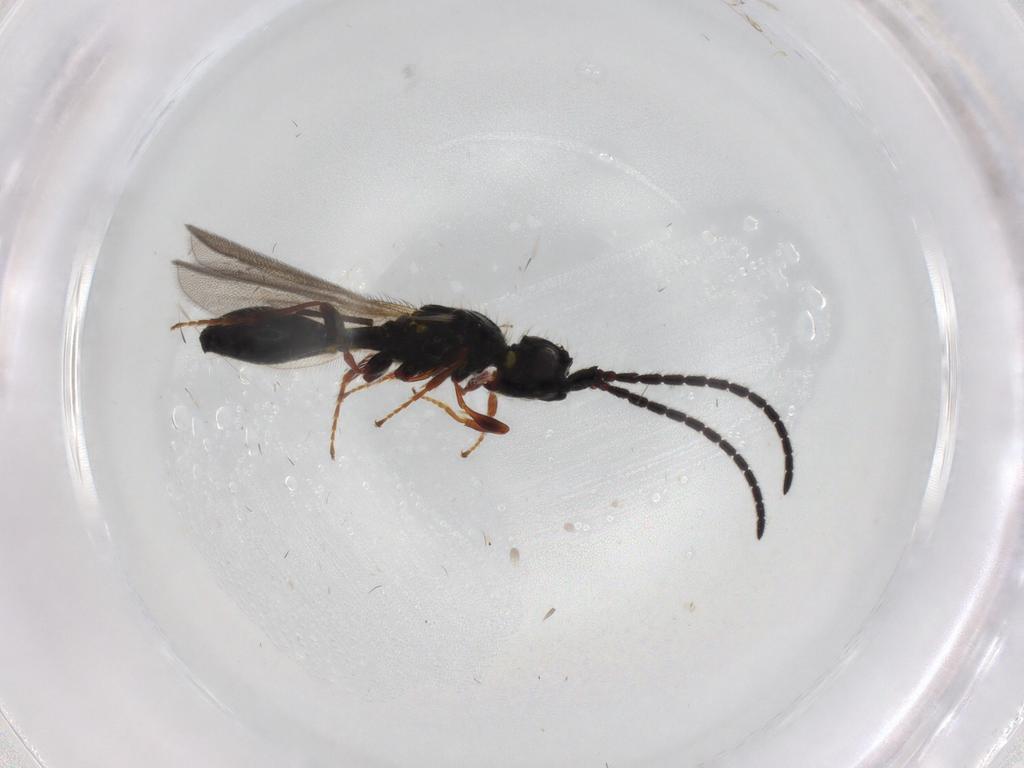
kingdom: Animalia
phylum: Arthropoda
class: Insecta
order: Hymenoptera
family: Diapriidae
